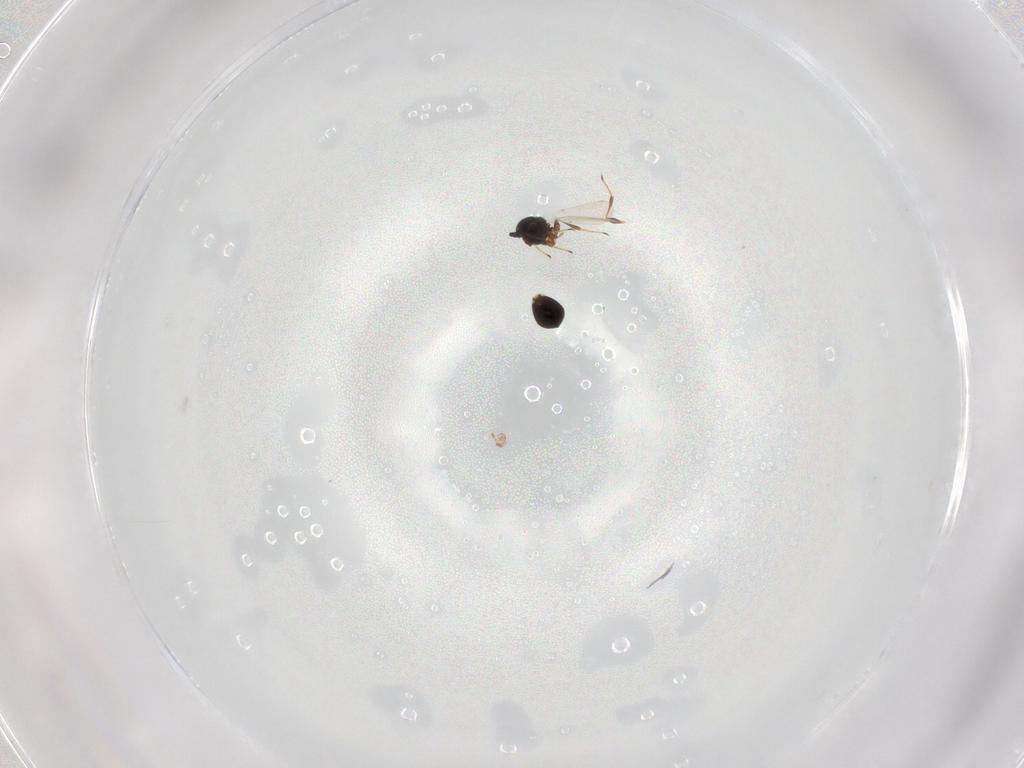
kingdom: Animalia
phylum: Arthropoda
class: Insecta
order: Hymenoptera
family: Platygastridae
